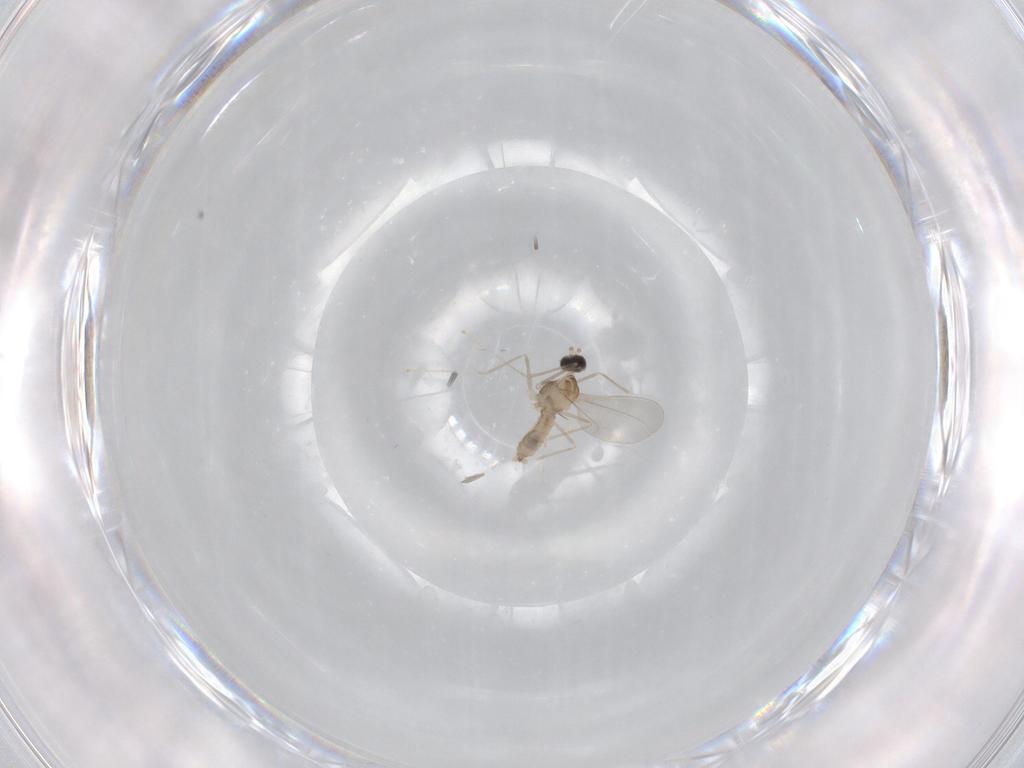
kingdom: Animalia
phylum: Arthropoda
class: Insecta
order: Diptera
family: Cecidomyiidae
